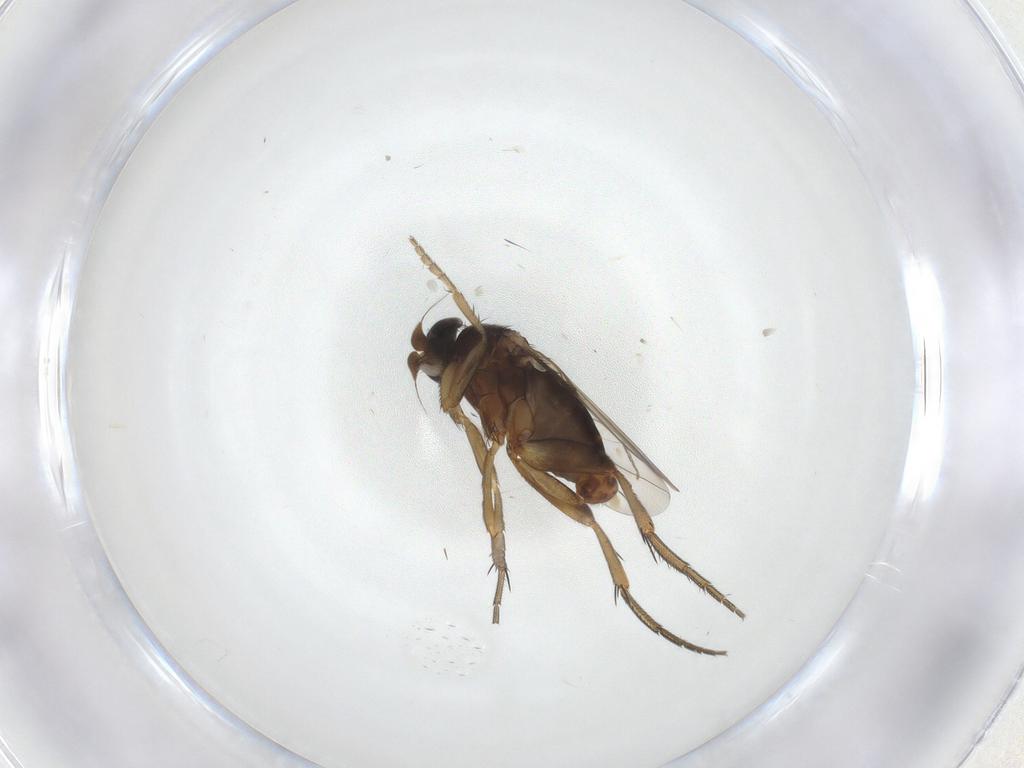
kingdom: Animalia
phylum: Arthropoda
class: Insecta
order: Diptera
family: Phoridae
